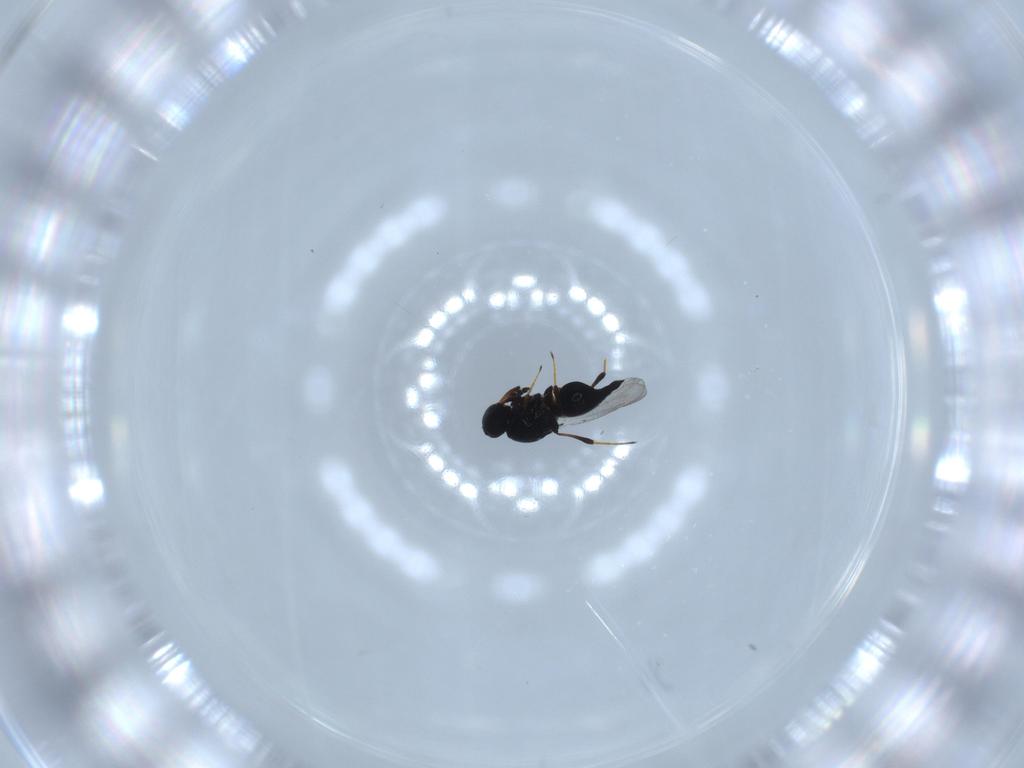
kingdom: Animalia
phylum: Arthropoda
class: Insecta
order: Hymenoptera
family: Platygastridae
